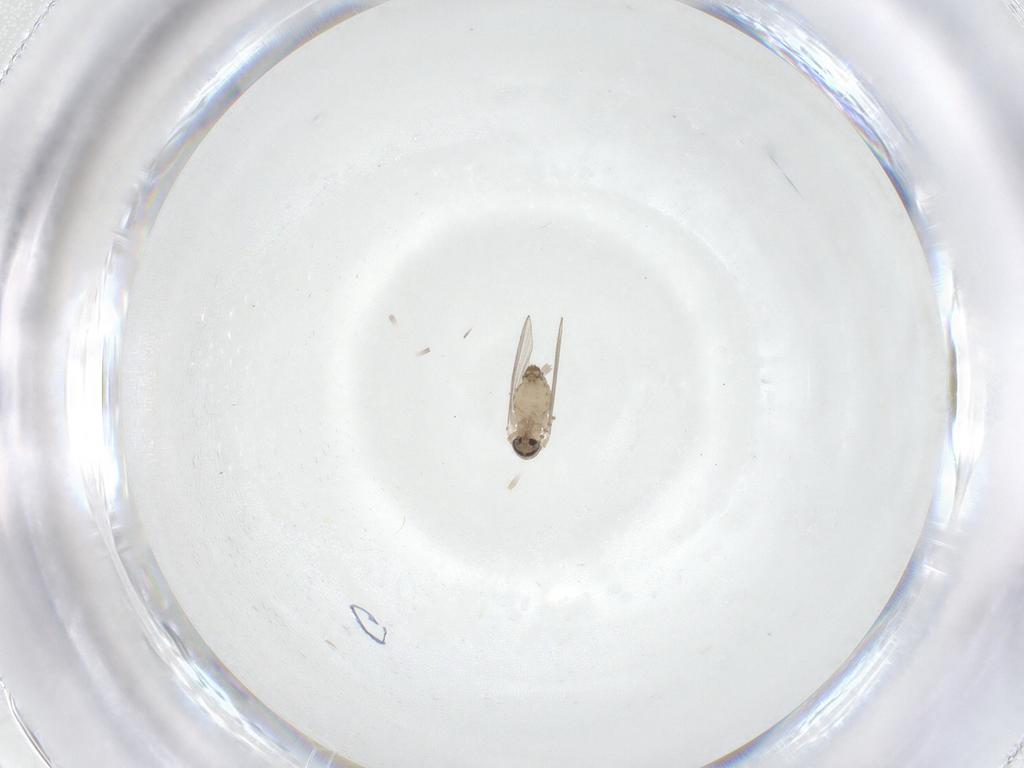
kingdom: Animalia
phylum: Arthropoda
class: Insecta
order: Diptera
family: Psychodidae
